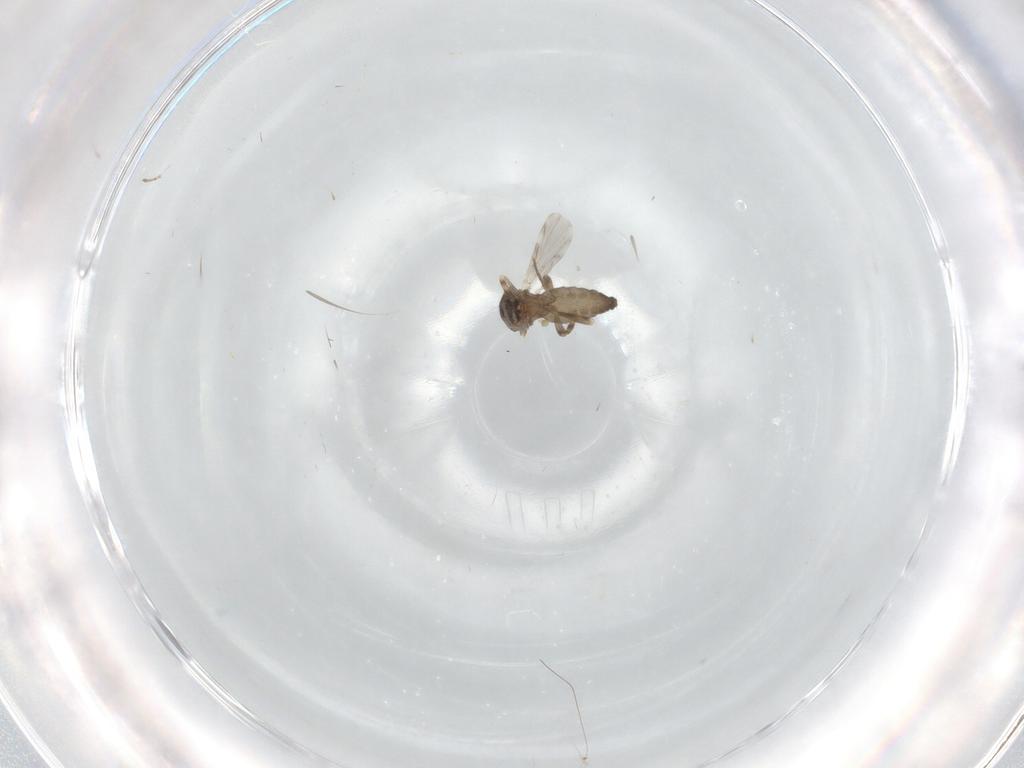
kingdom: Animalia
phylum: Arthropoda
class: Insecta
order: Diptera
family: Ceratopogonidae
